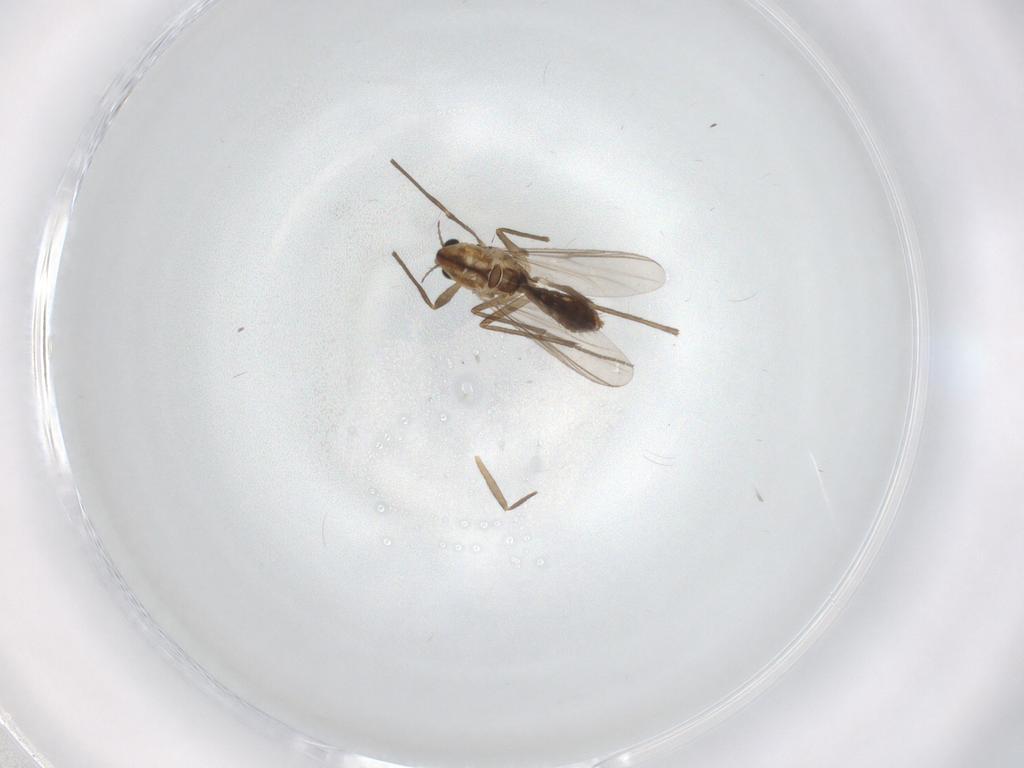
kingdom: Animalia
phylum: Arthropoda
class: Insecta
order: Diptera
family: Chironomidae
